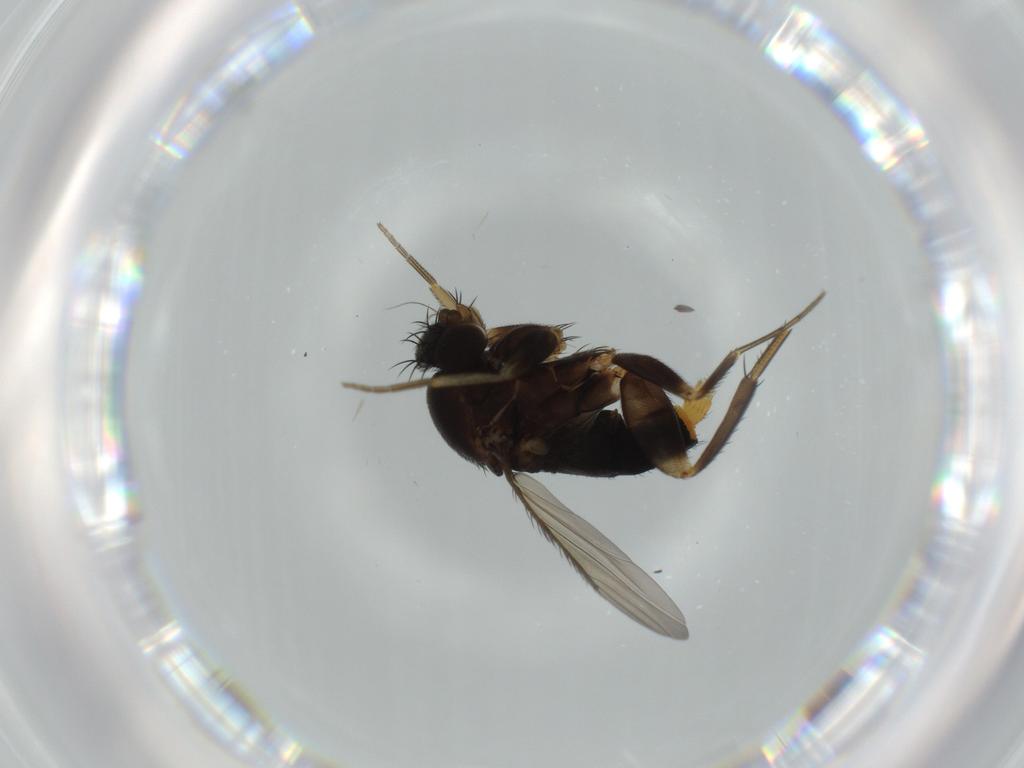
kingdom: Animalia
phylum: Arthropoda
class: Insecta
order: Diptera
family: Phoridae
